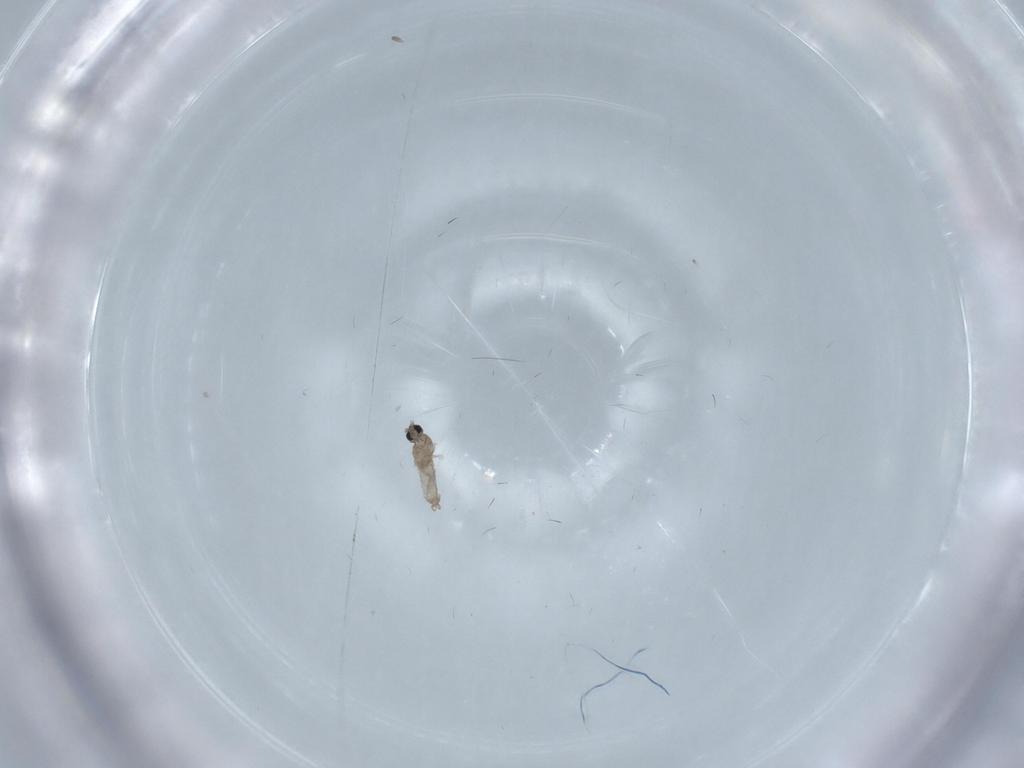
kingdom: Animalia
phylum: Arthropoda
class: Insecta
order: Diptera
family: Cecidomyiidae
